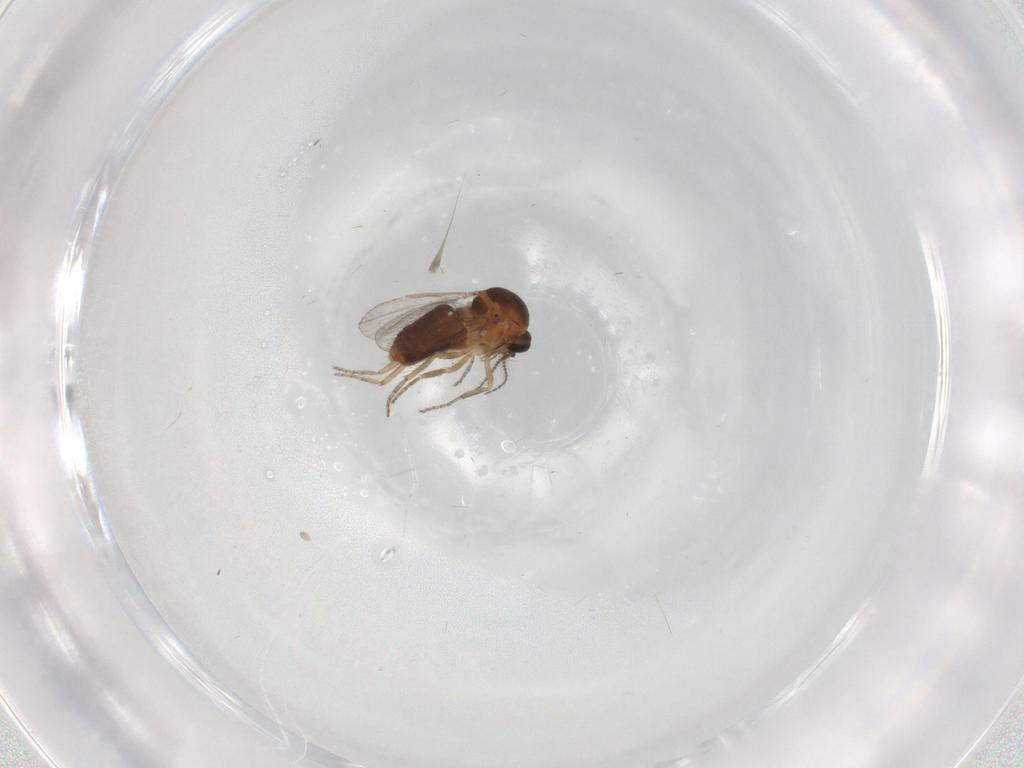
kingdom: Animalia
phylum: Arthropoda
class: Insecta
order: Diptera
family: Ceratopogonidae
